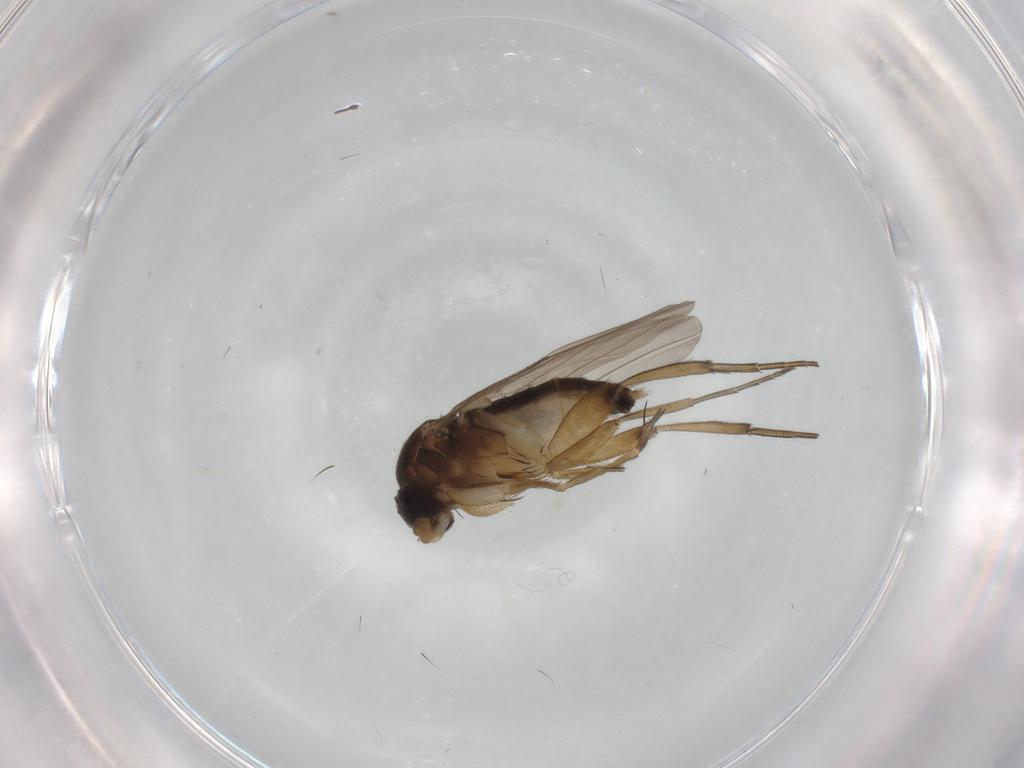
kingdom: Animalia
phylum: Arthropoda
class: Insecta
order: Diptera
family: Phoridae
